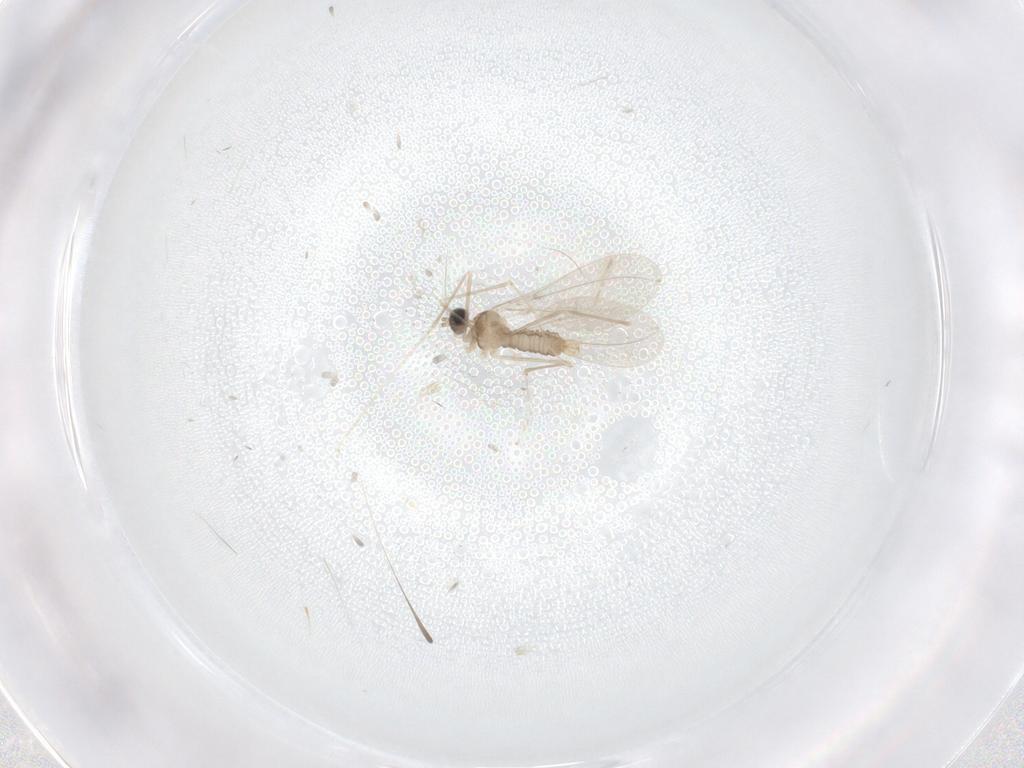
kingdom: Animalia
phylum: Arthropoda
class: Insecta
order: Diptera
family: Cecidomyiidae
